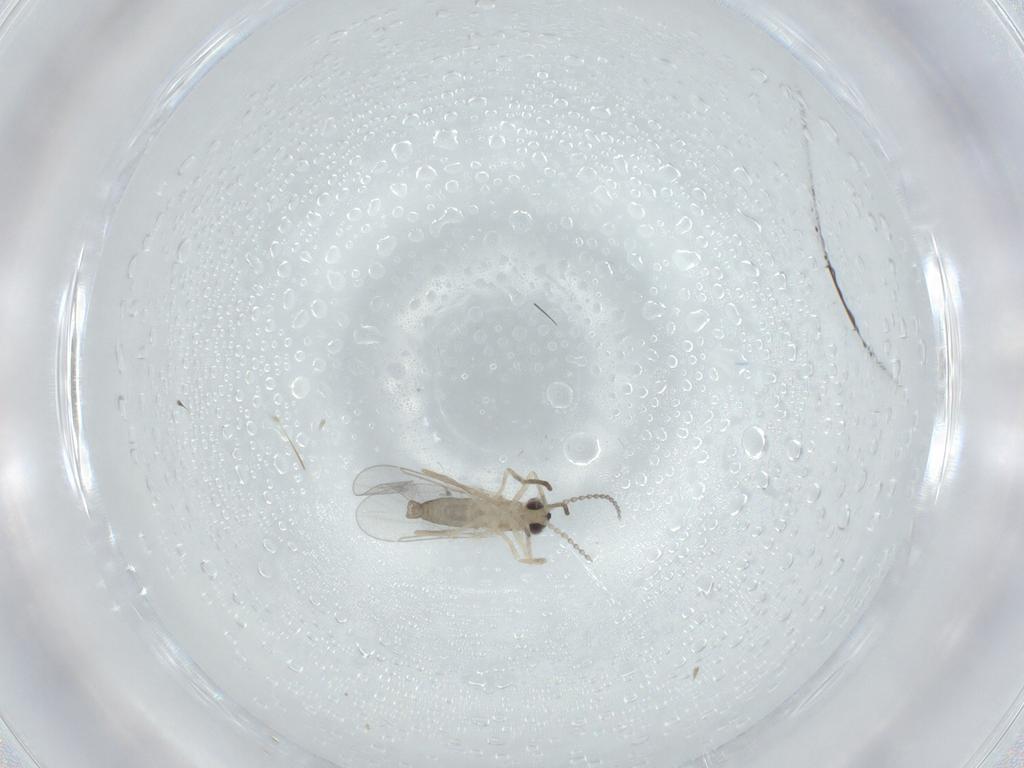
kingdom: Animalia
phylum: Arthropoda
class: Insecta
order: Diptera
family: Cecidomyiidae
